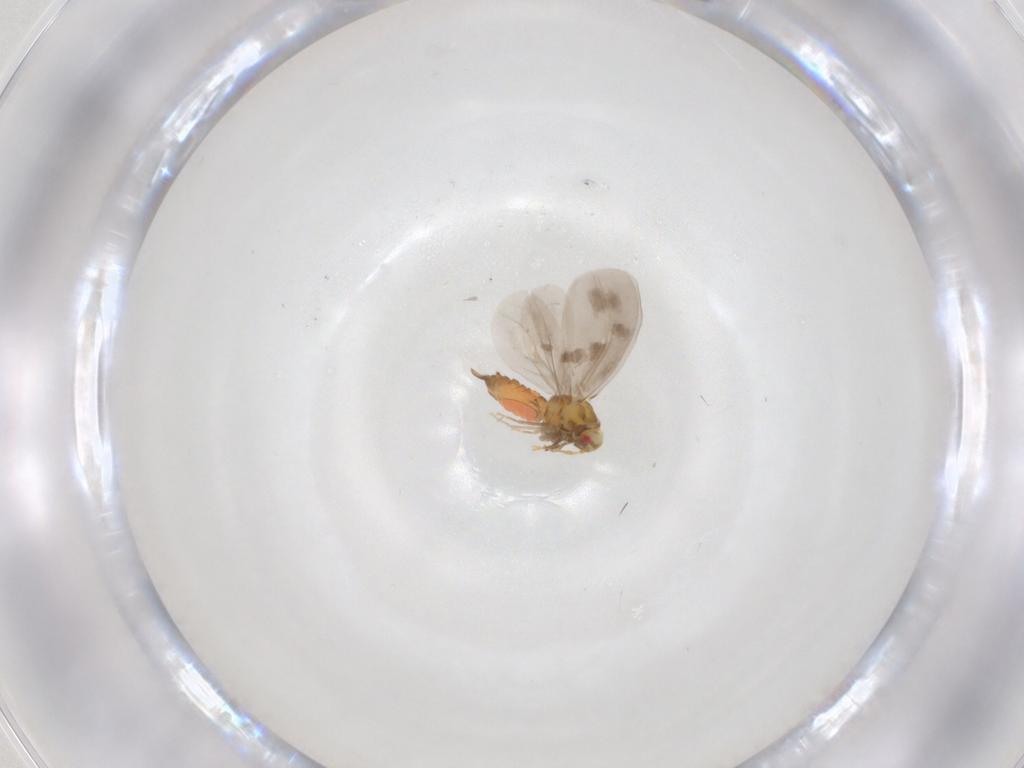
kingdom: Animalia
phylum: Arthropoda
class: Insecta
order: Hemiptera
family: Aleyrodidae
